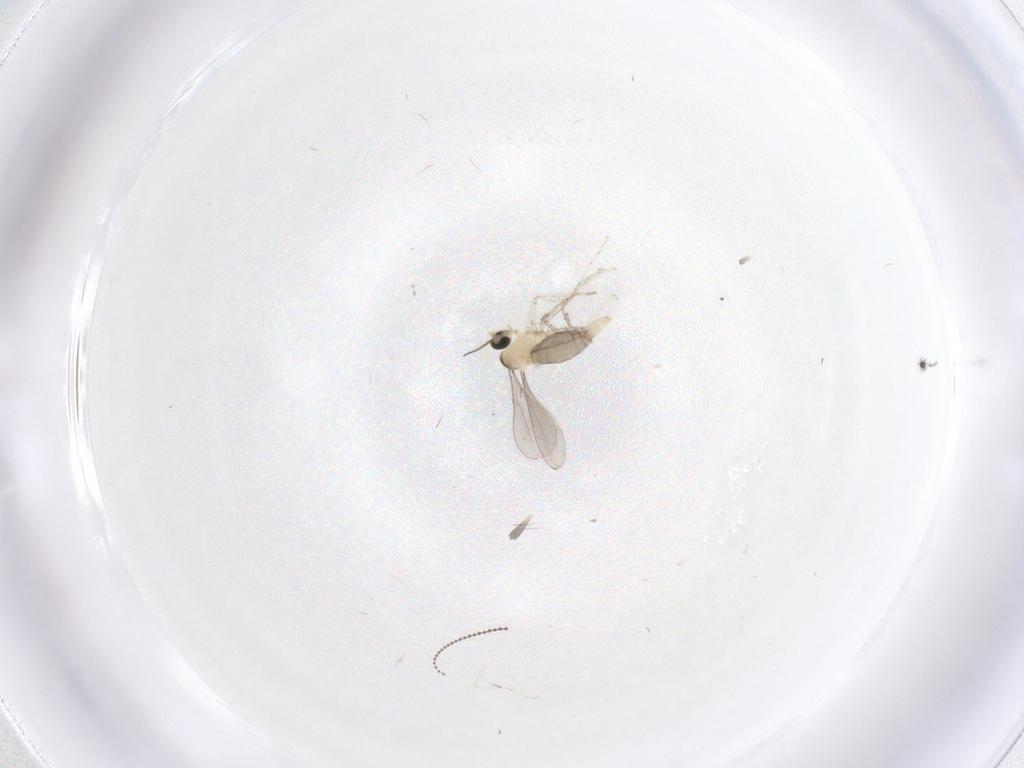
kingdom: Animalia
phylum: Arthropoda
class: Insecta
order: Diptera
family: Cecidomyiidae
